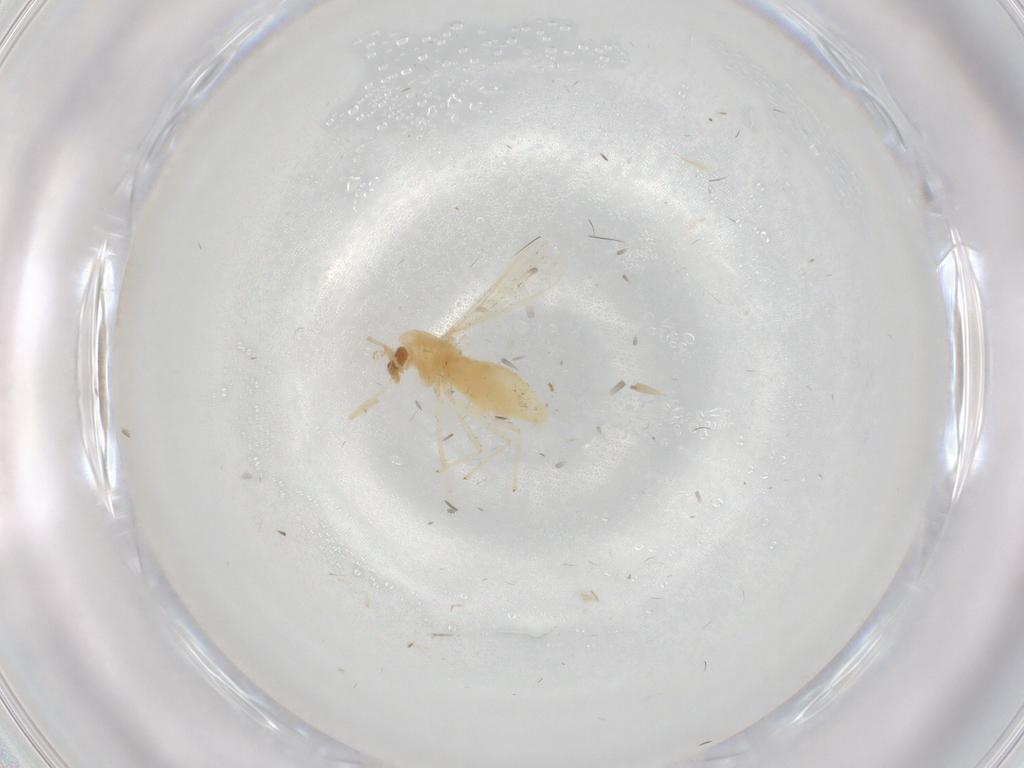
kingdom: Animalia
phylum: Arthropoda
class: Insecta
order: Diptera
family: Cecidomyiidae
